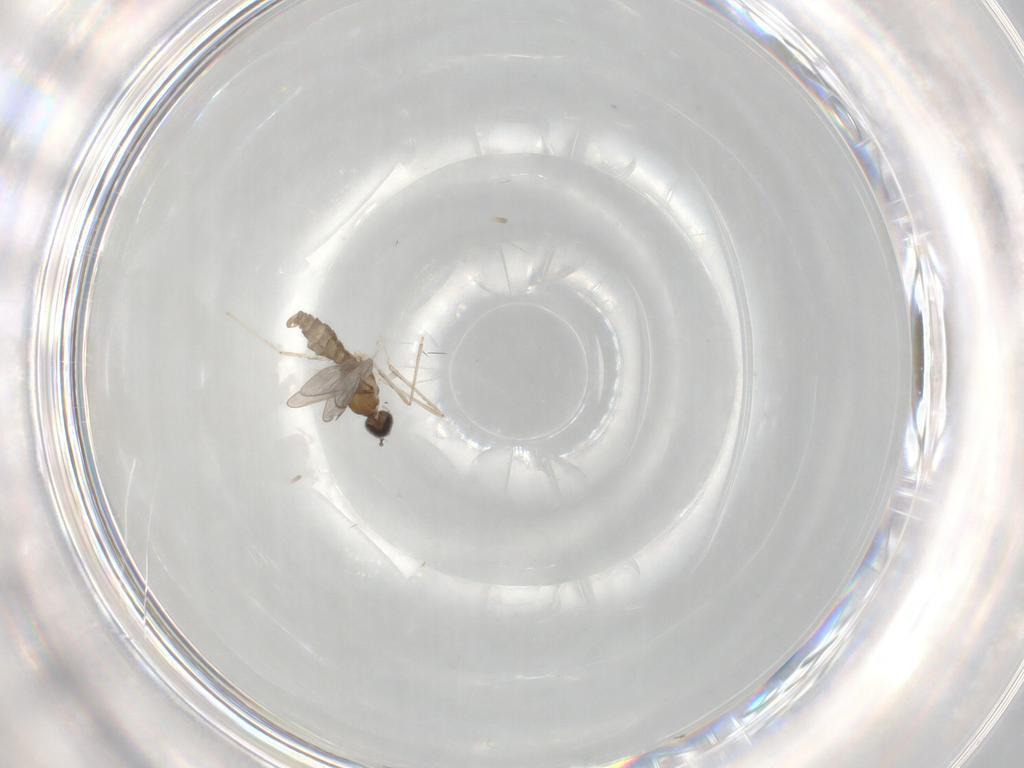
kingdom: Animalia
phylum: Arthropoda
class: Insecta
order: Diptera
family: Cecidomyiidae
